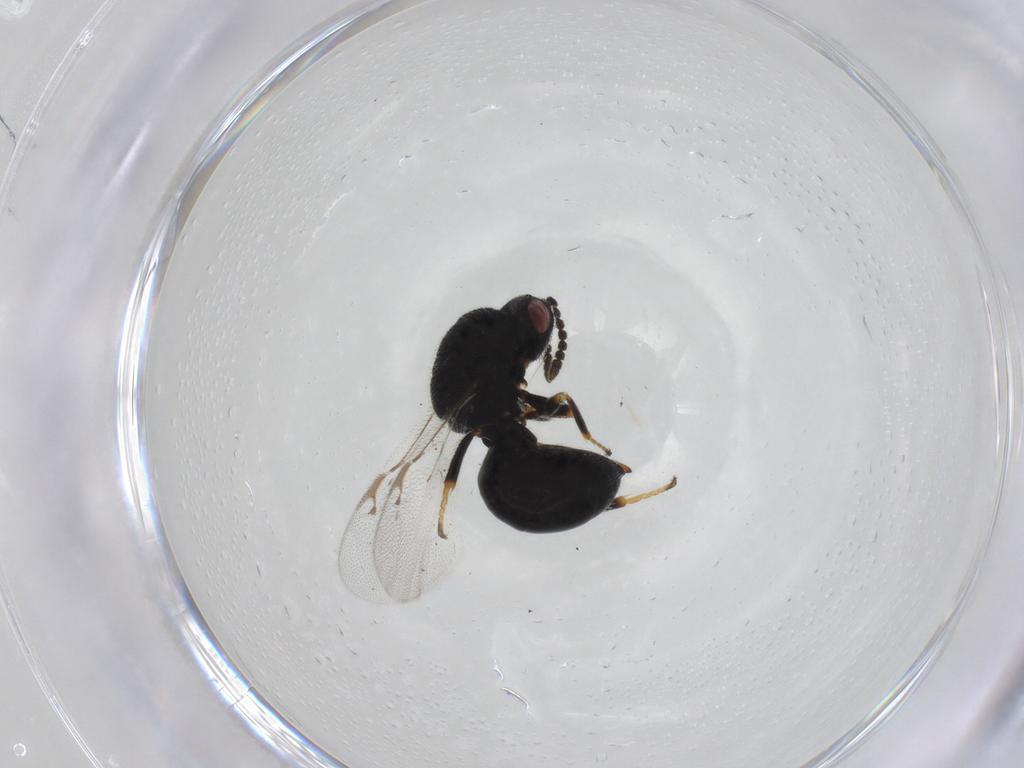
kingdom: Animalia
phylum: Arthropoda
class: Insecta
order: Hymenoptera
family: Eurytomidae
